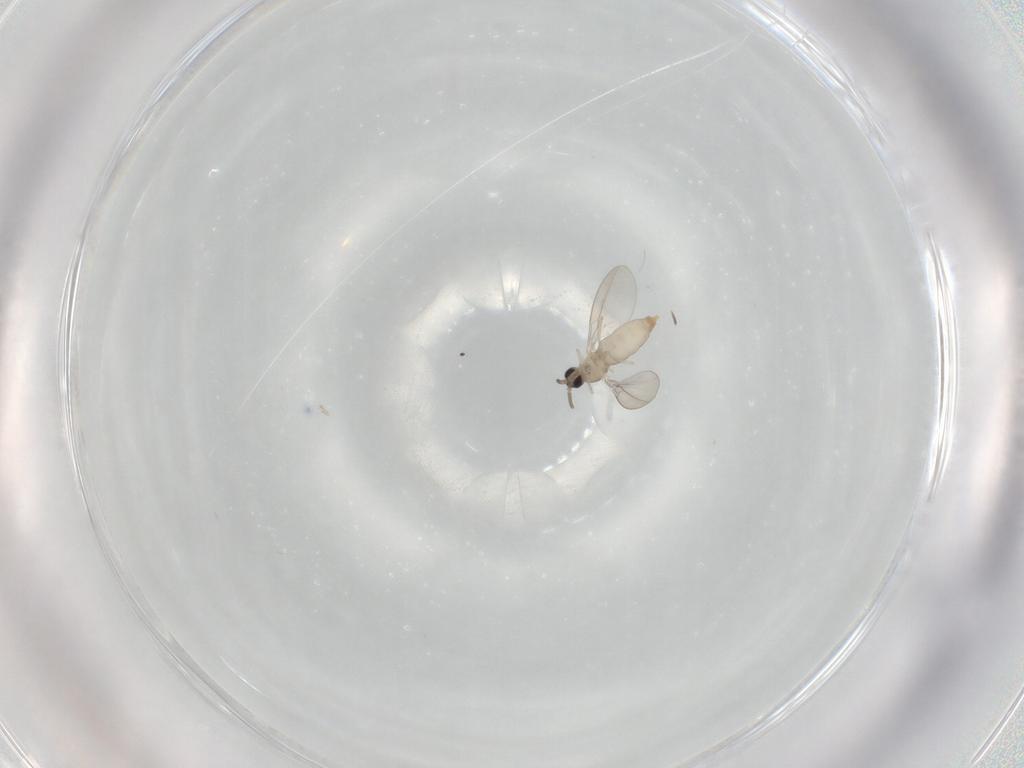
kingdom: Animalia
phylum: Arthropoda
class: Insecta
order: Diptera
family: Cecidomyiidae
